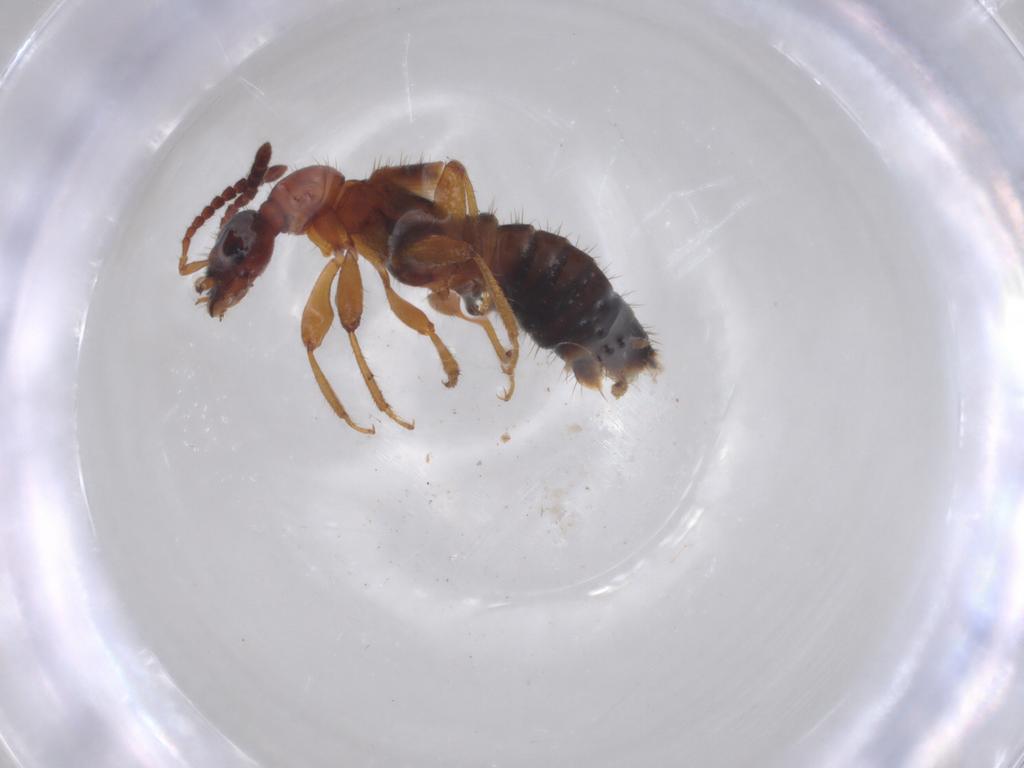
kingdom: Animalia
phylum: Arthropoda
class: Insecta
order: Coleoptera
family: Staphylinidae
